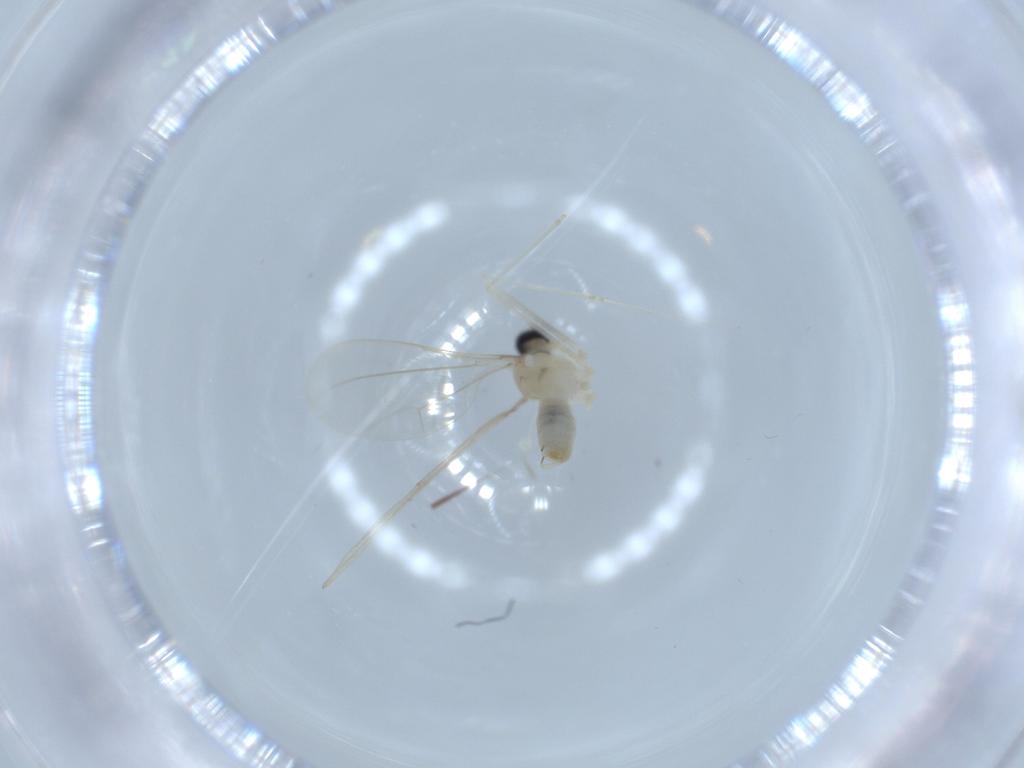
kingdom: Animalia
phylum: Arthropoda
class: Insecta
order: Diptera
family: Cecidomyiidae
